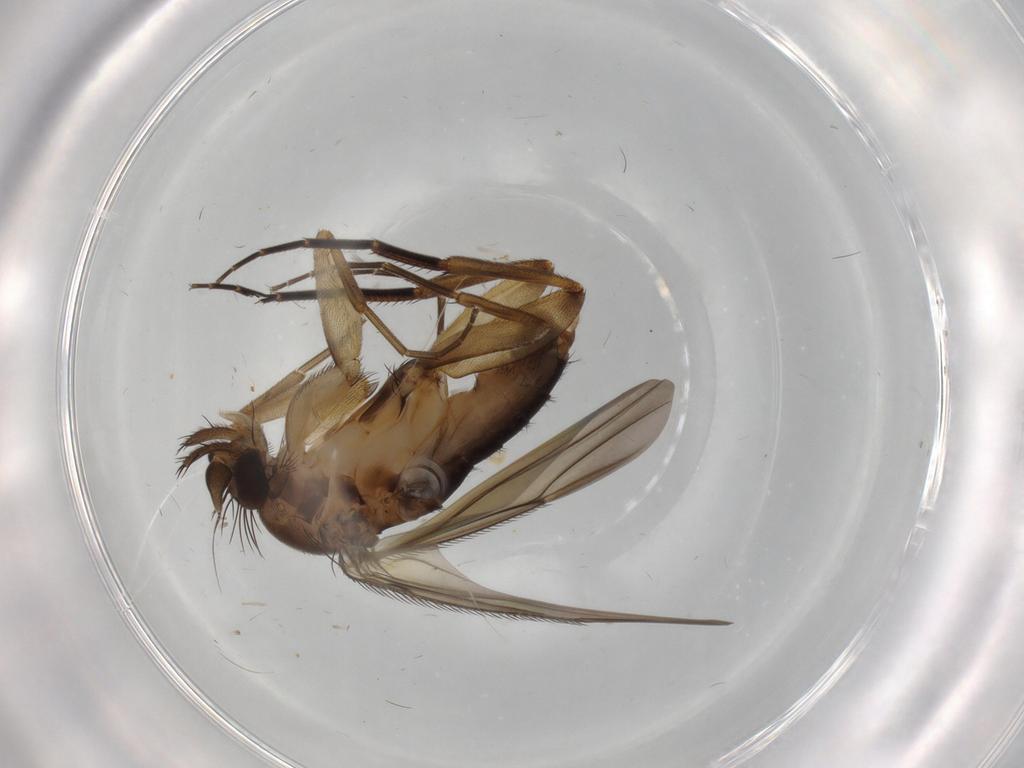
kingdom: Animalia
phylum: Arthropoda
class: Insecta
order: Diptera
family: Phoridae
